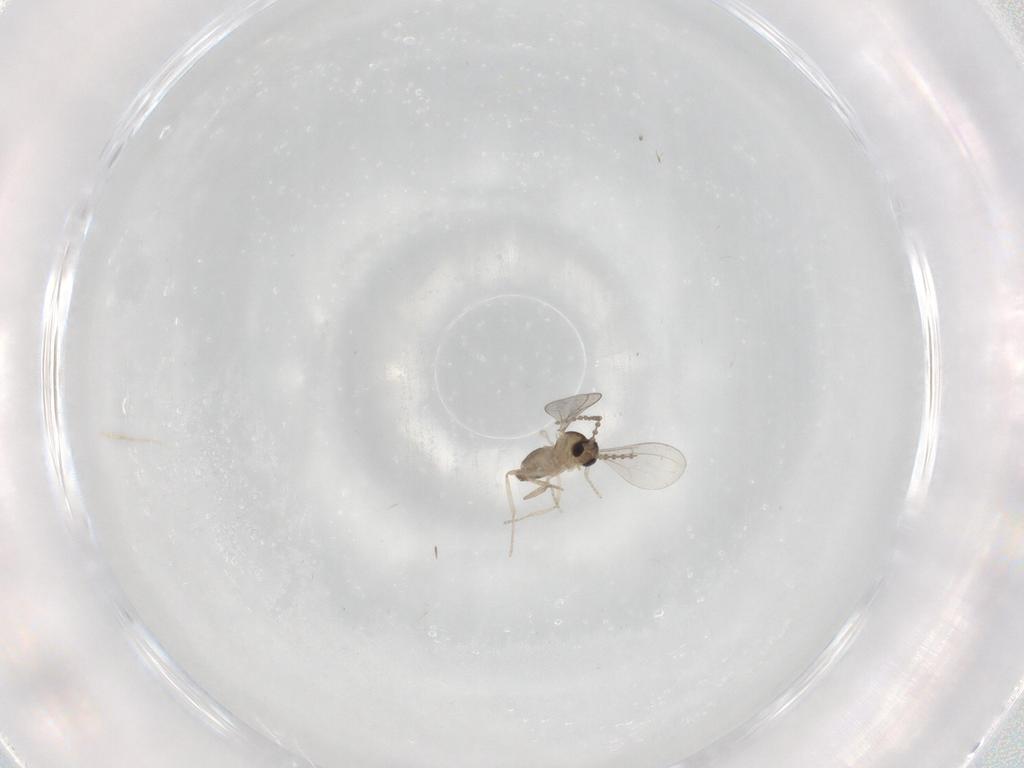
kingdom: Animalia
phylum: Arthropoda
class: Insecta
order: Diptera
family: Cecidomyiidae
